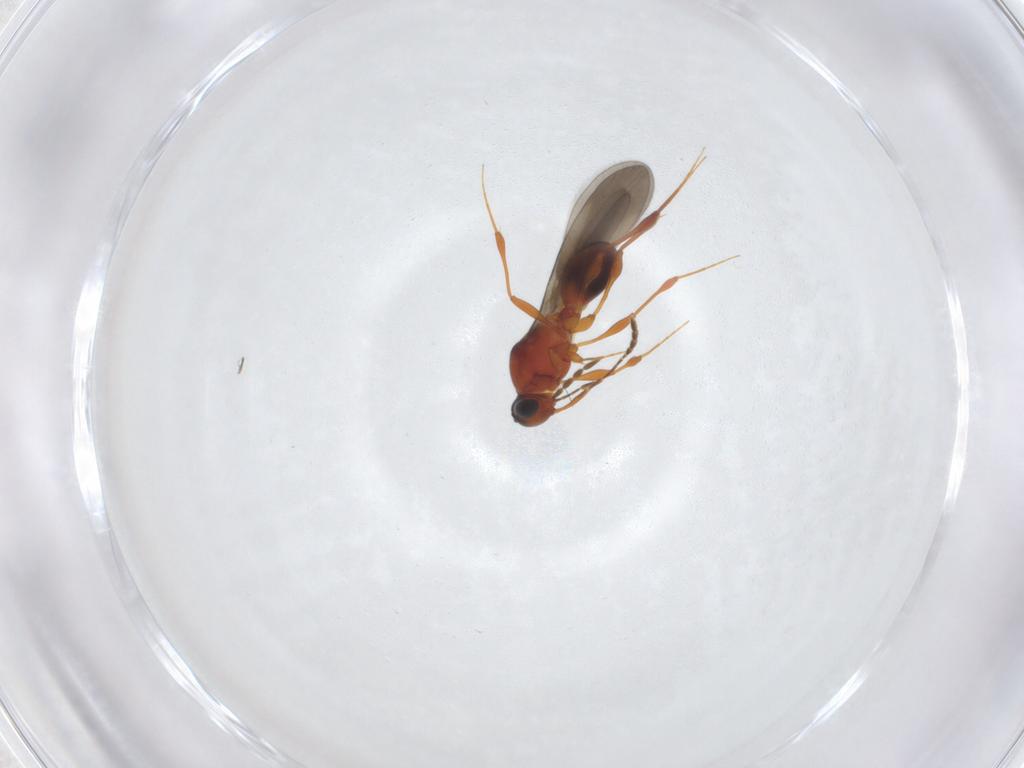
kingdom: Animalia
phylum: Arthropoda
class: Insecta
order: Hymenoptera
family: Platygastridae
